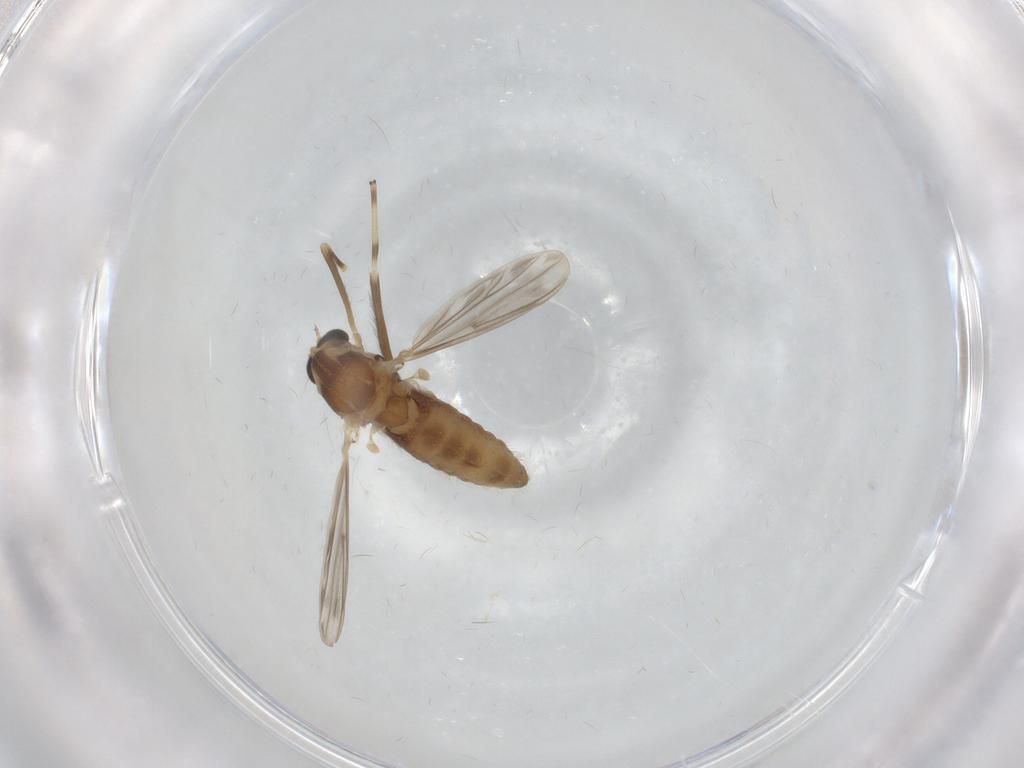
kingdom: Animalia
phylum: Arthropoda
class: Insecta
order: Diptera
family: Chironomidae
